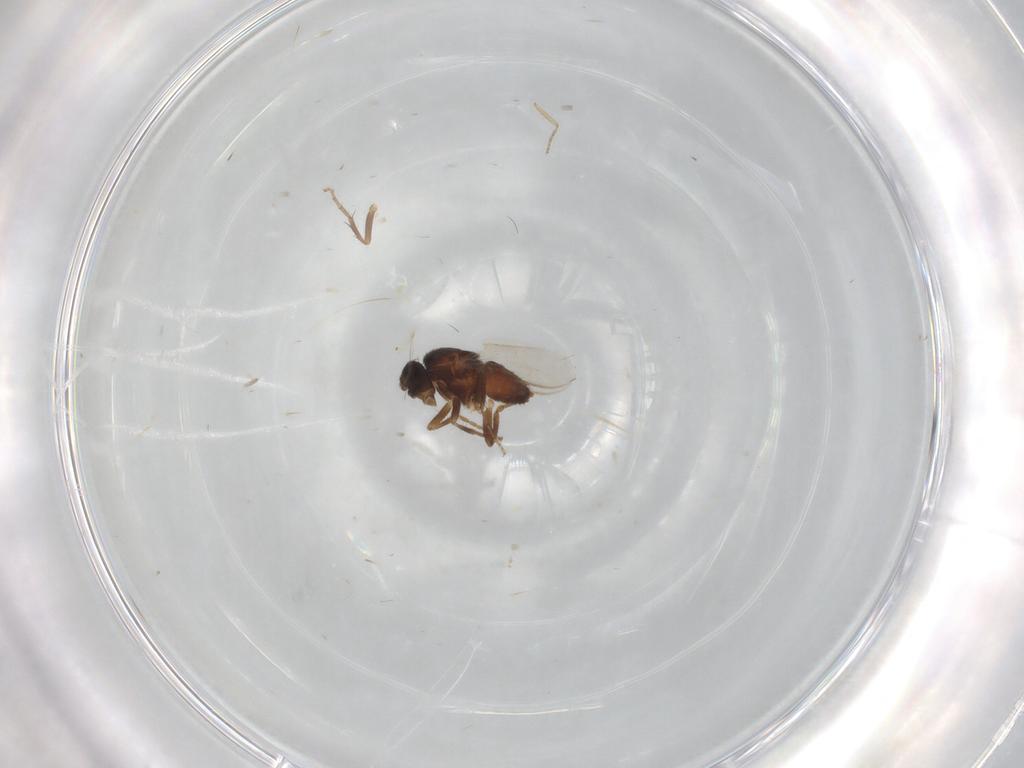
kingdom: Animalia
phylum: Arthropoda
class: Insecta
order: Diptera
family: Sphaeroceridae
